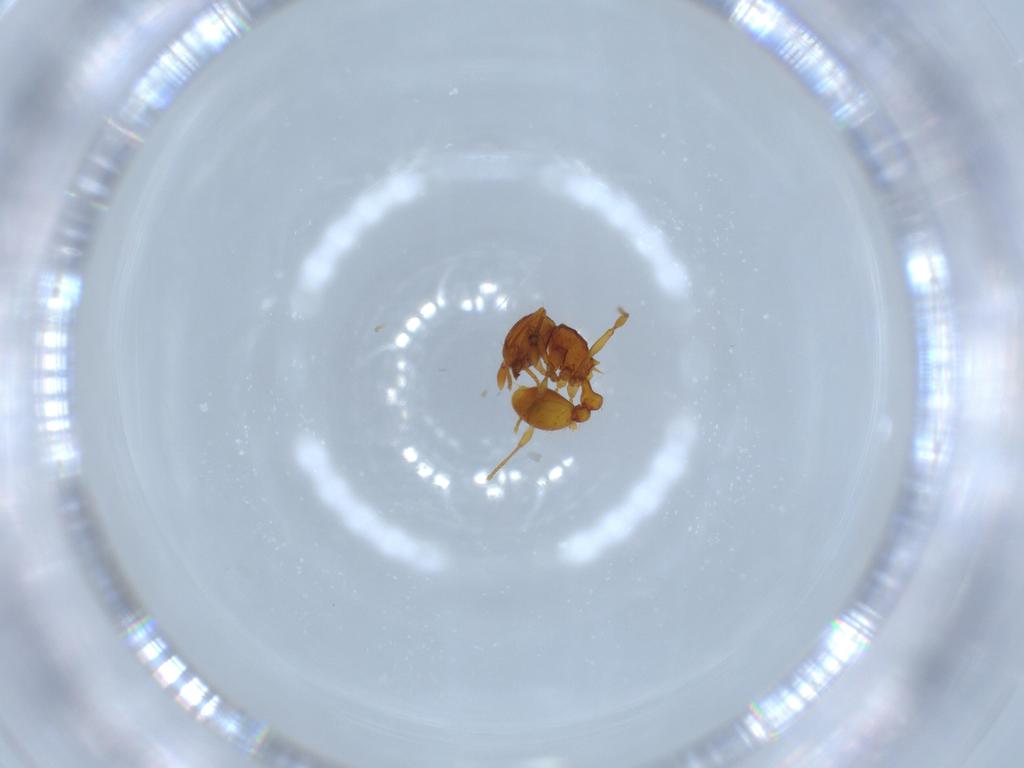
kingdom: Animalia
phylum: Arthropoda
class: Insecta
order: Hymenoptera
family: Formicidae
